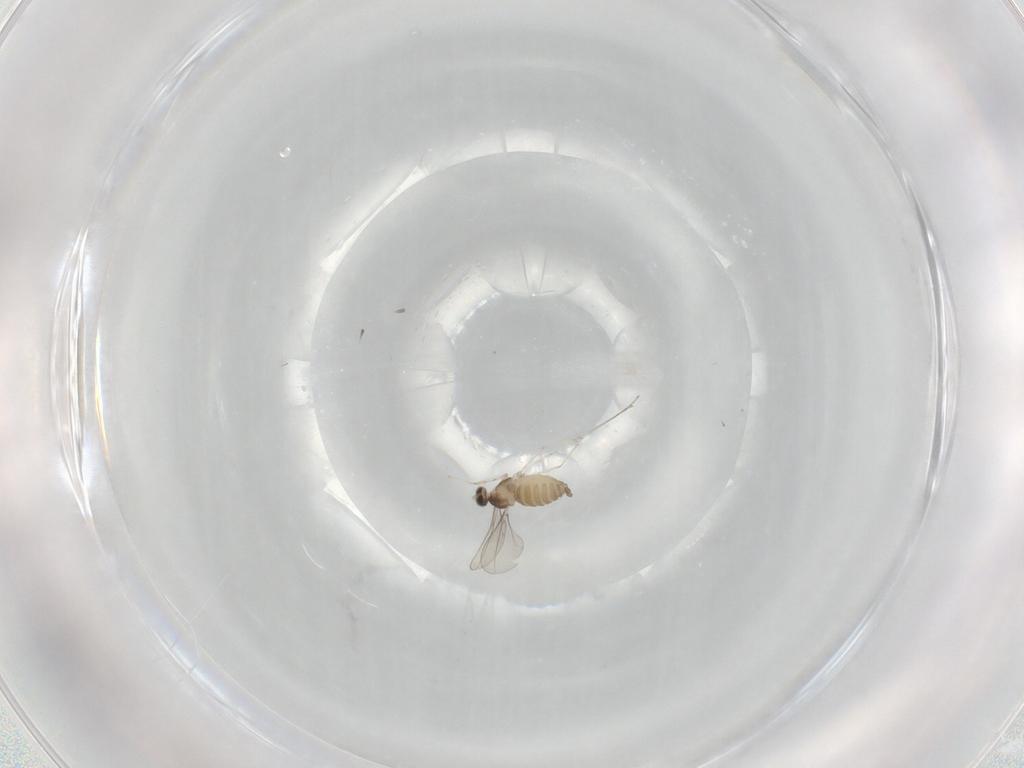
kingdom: Animalia
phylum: Arthropoda
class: Insecta
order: Diptera
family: Cecidomyiidae
